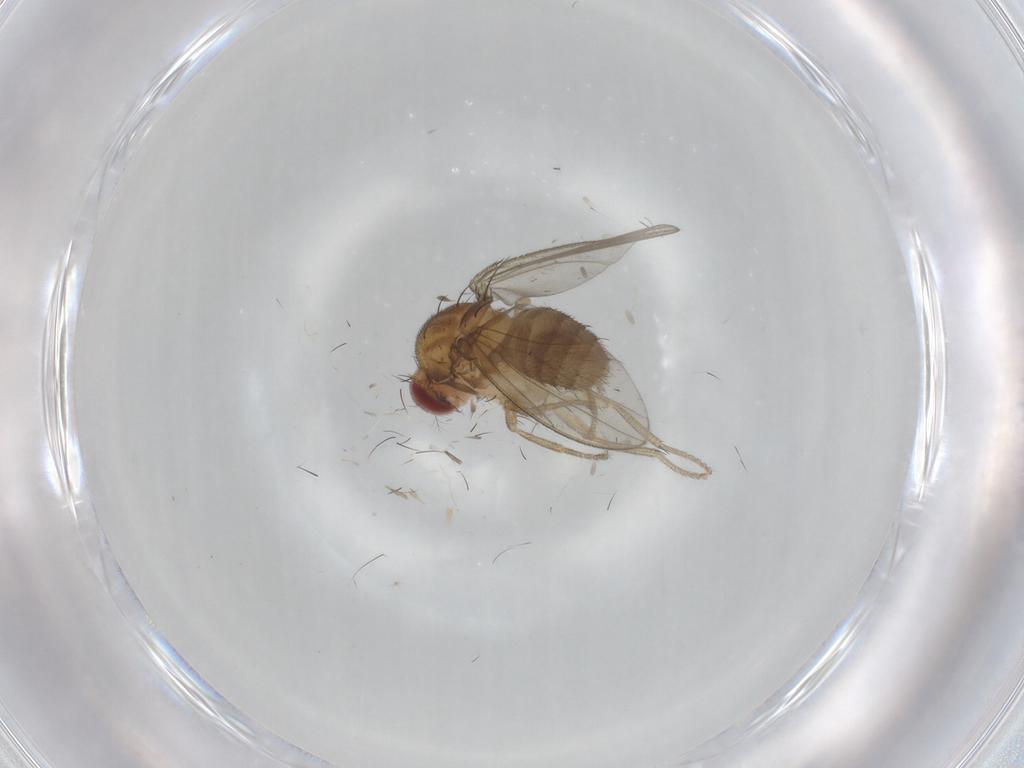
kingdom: Animalia
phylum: Arthropoda
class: Insecta
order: Diptera
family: Drosophilidae
